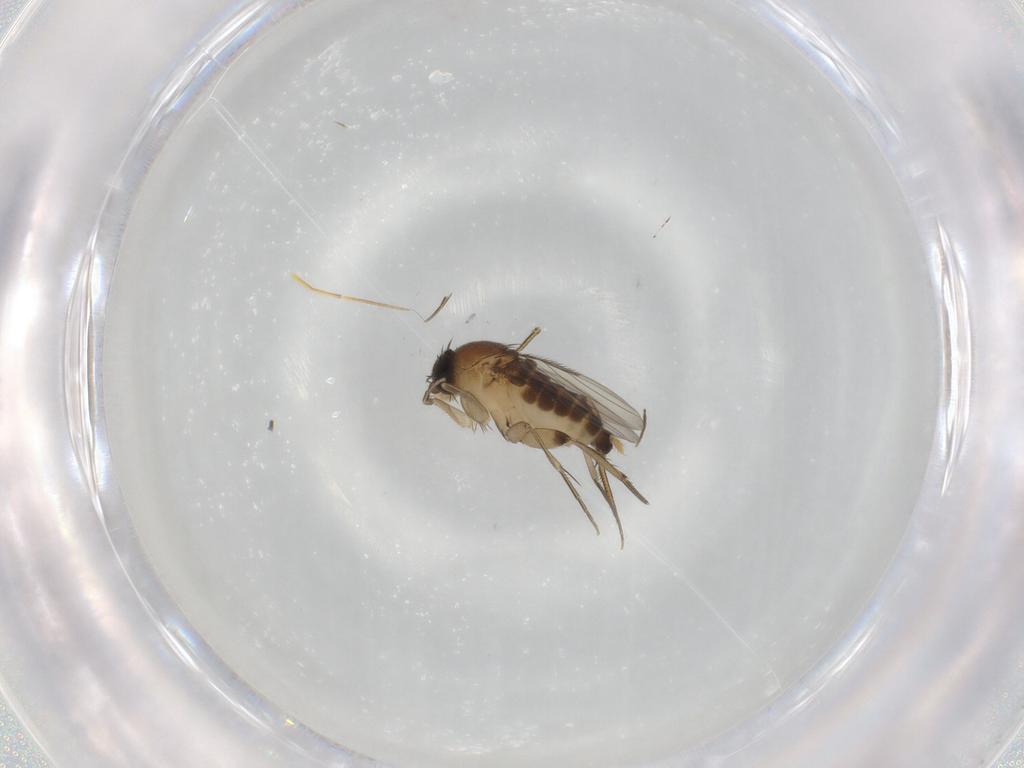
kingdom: Animalia
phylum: Arthropoda
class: Insecta
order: Diptera
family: Phoridae
